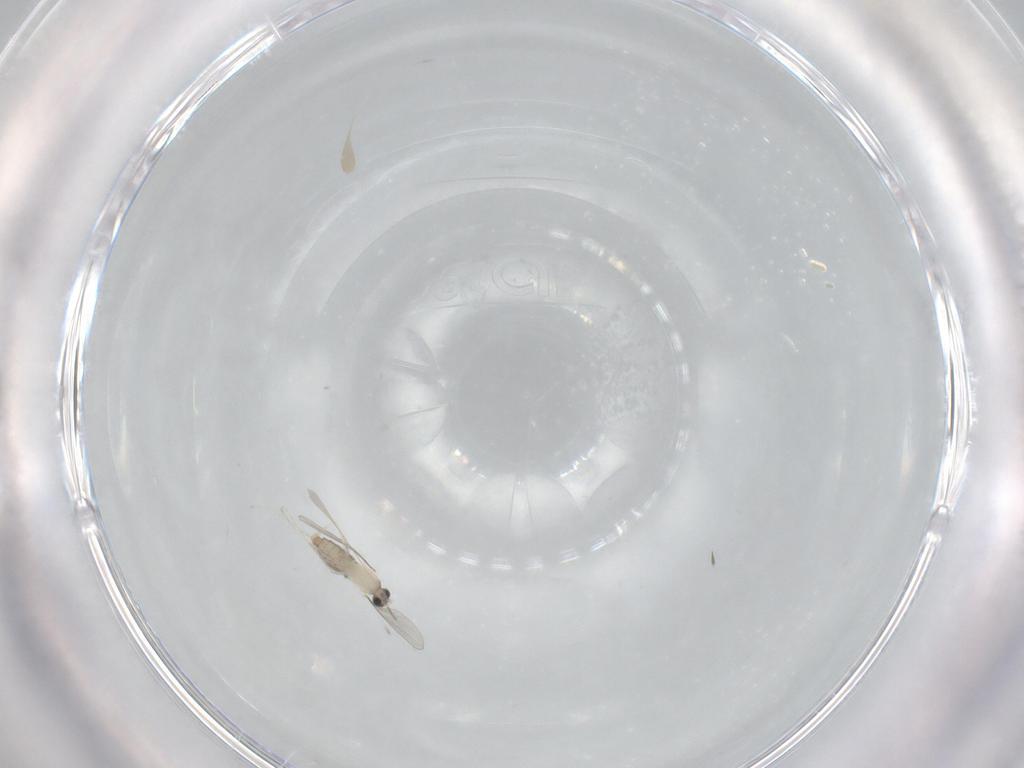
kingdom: Animalia
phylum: Arthropoda
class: Insecta
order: Diptera
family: Cecidomyiidae
